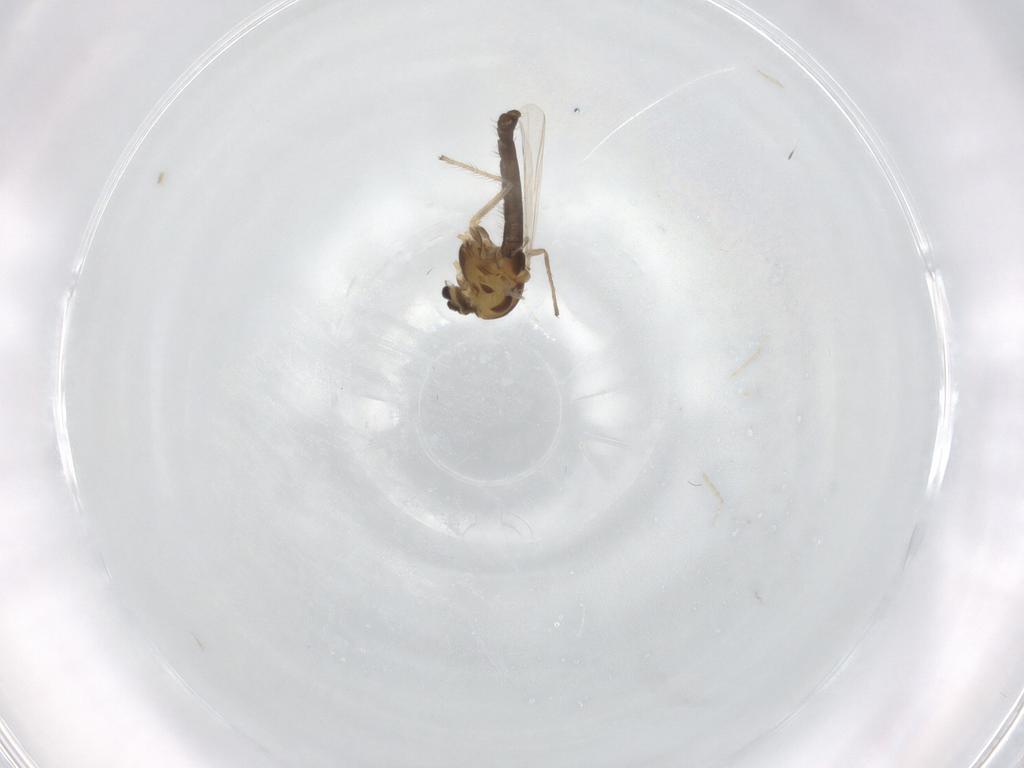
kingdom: Animalia
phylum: Arthropoda
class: Insecta
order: Diptera
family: Chironomidae
